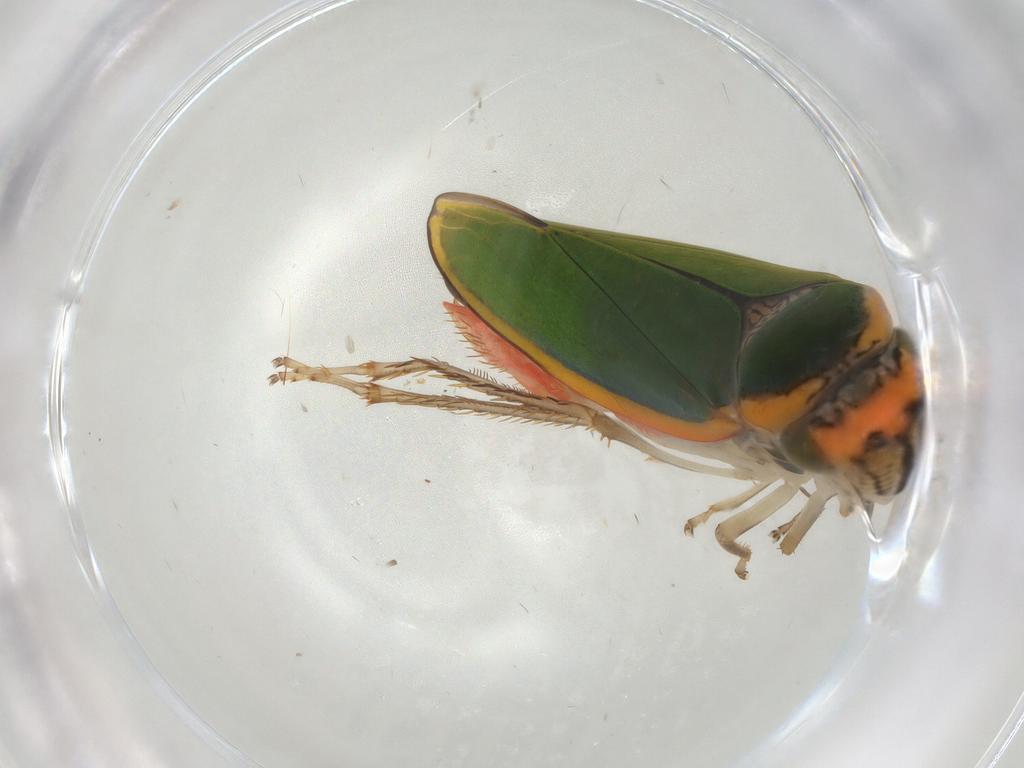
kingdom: Animalia
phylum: Arthropoda
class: Insecta
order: Hemiptera
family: Cicadellidae
